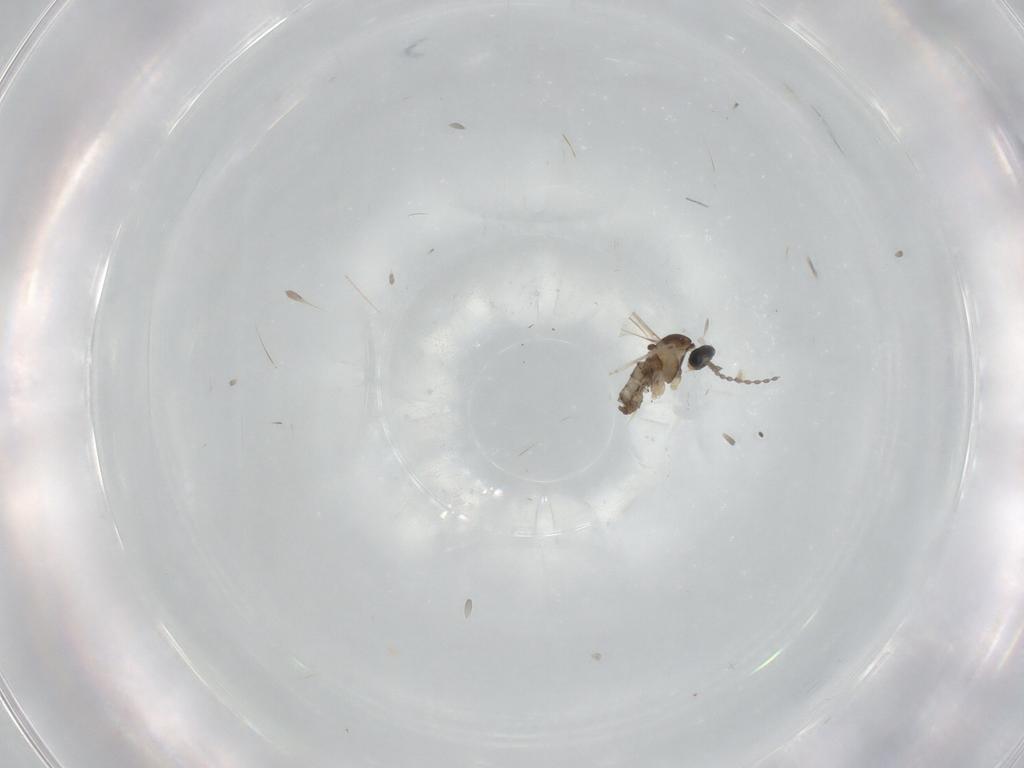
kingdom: Animalia
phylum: Arthropoda
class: Insecta
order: Diptera
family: Cecidomyiidae
